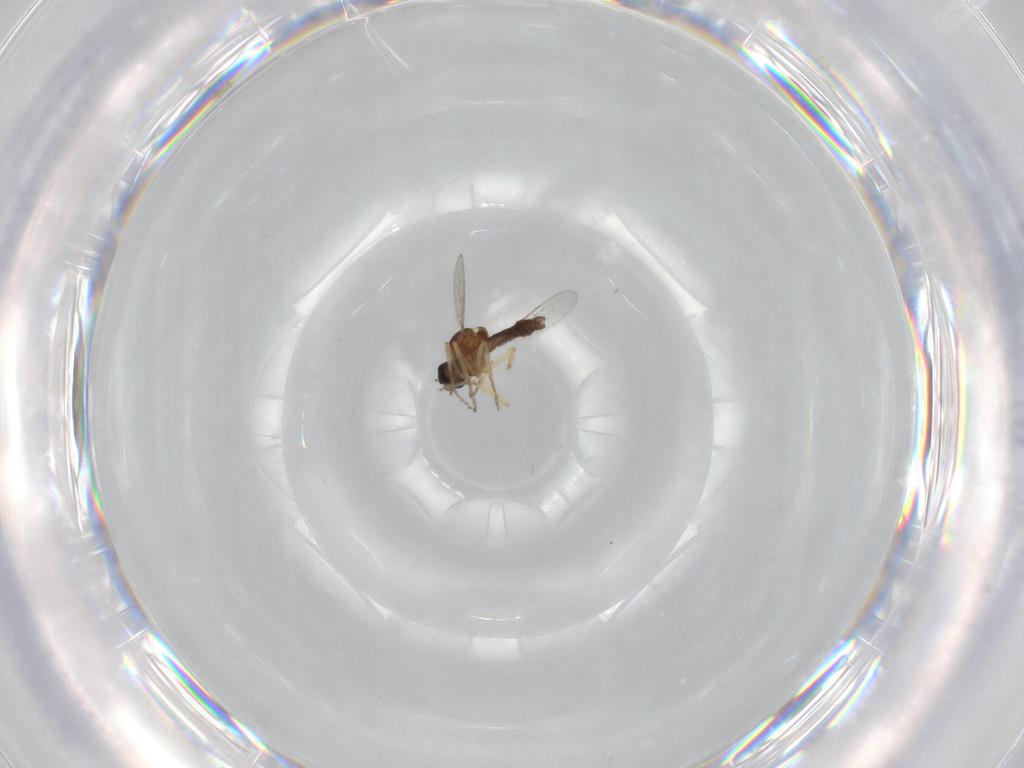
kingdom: Animalia
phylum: Arthropoda
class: Insecta
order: Diptera
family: Ceratopogonidae
